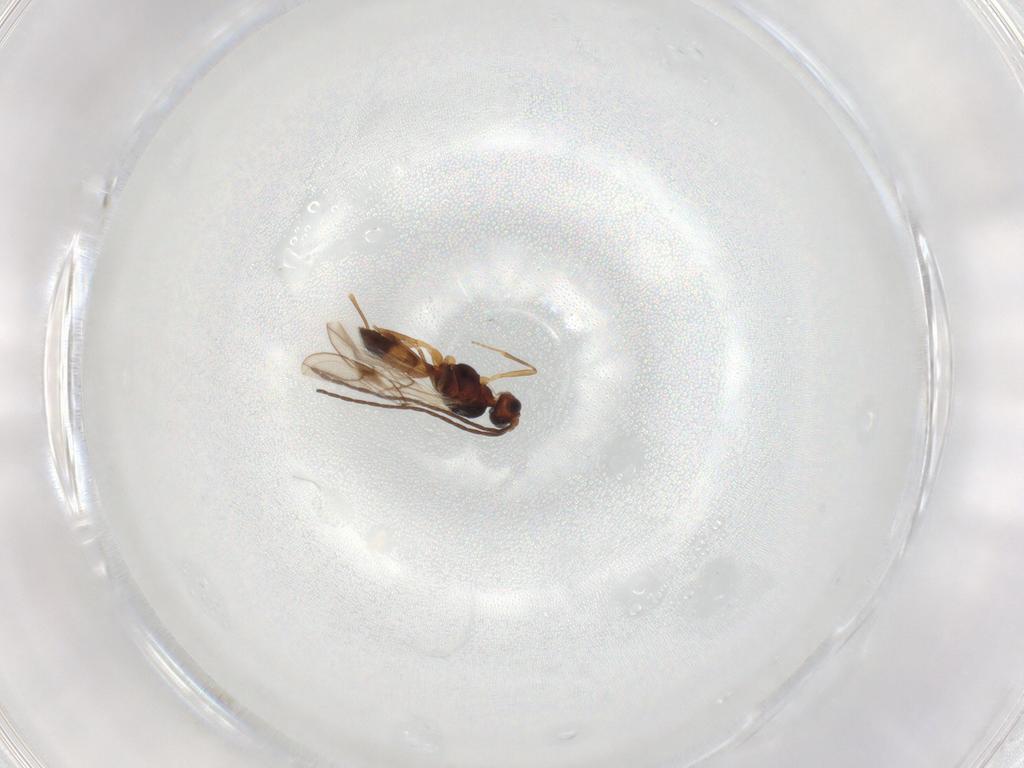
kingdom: Animalia
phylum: Arthropoda
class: Insecta
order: Hymenoptera
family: Braconidae
